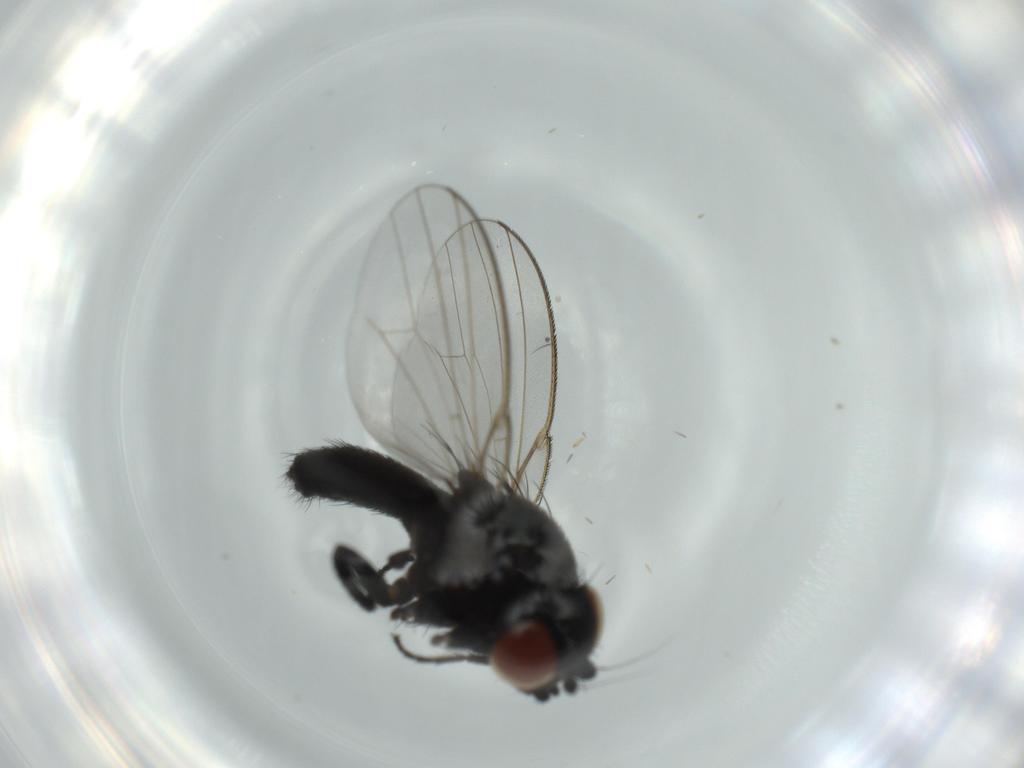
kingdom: Animalia
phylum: Arthropoda
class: Insecta
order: Diptera
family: Milichiidae
